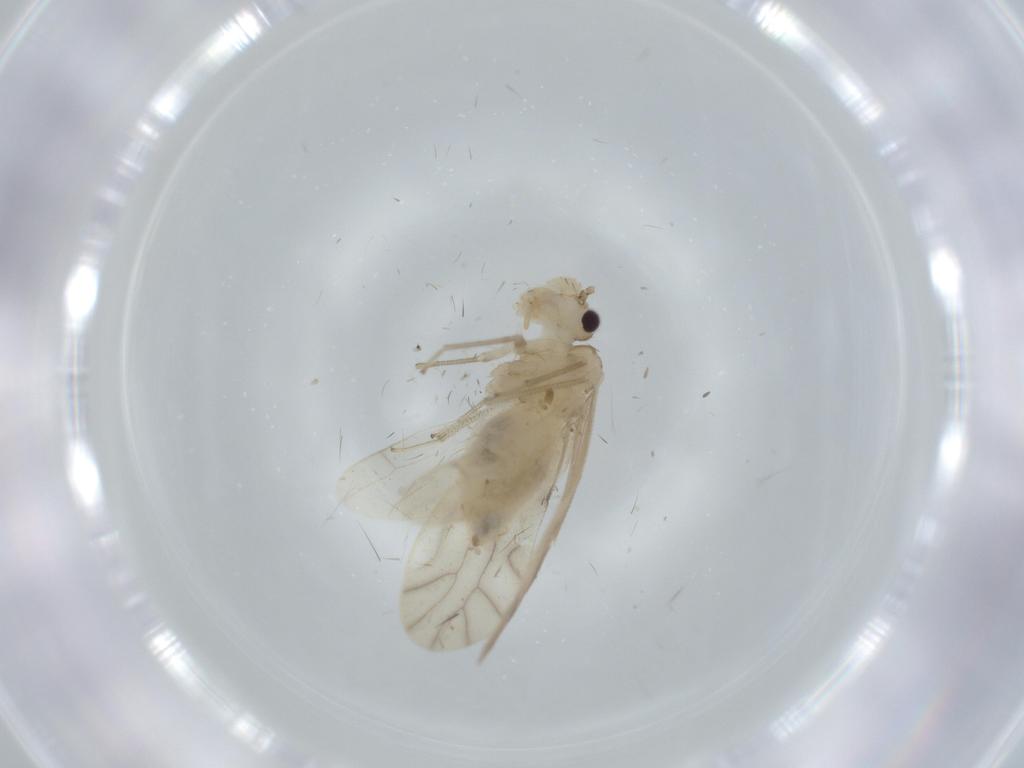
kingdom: Animalia
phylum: Arthropoda
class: Insecta
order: Psocodea
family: Caeciliusidae
